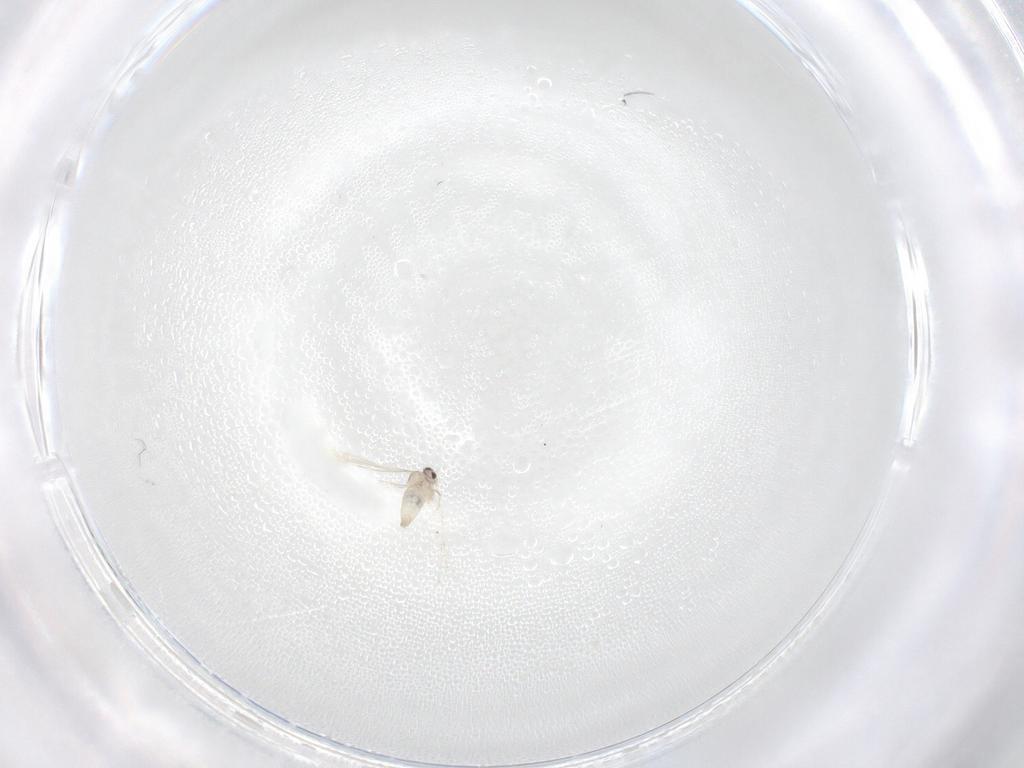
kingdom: Animalia
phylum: Arthropoda
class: Insecta
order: Diptera
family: Cecidomyiidae
